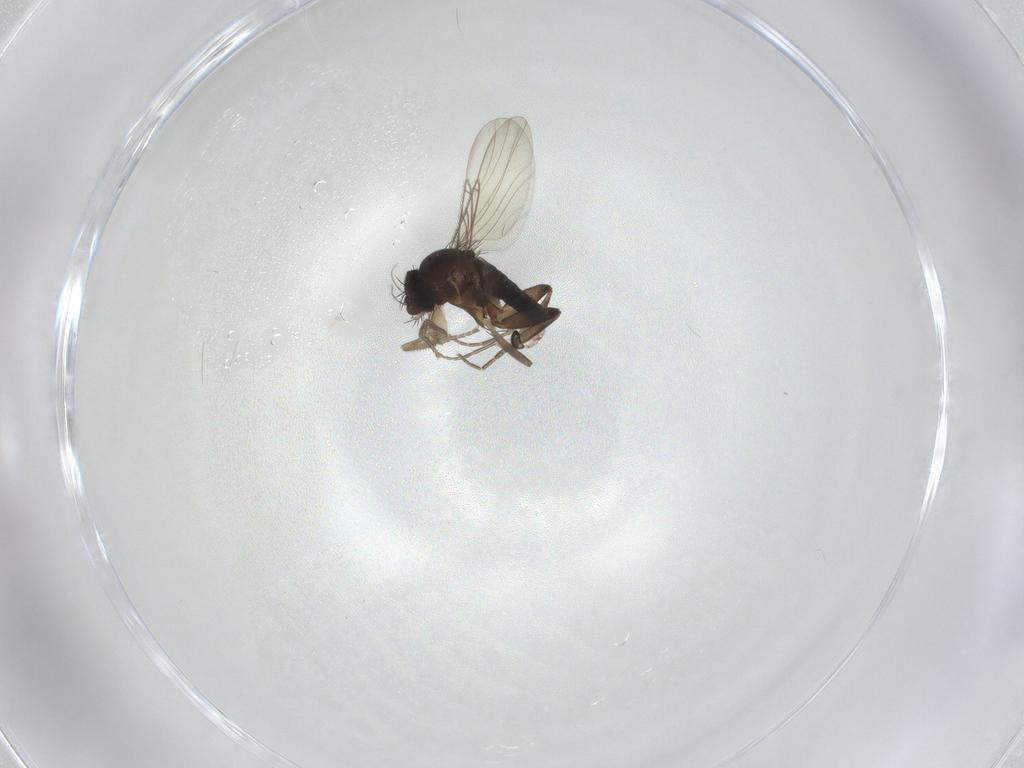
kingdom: Animalia
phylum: Arthropoda
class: Insecta
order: Diptera
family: Phoridae
